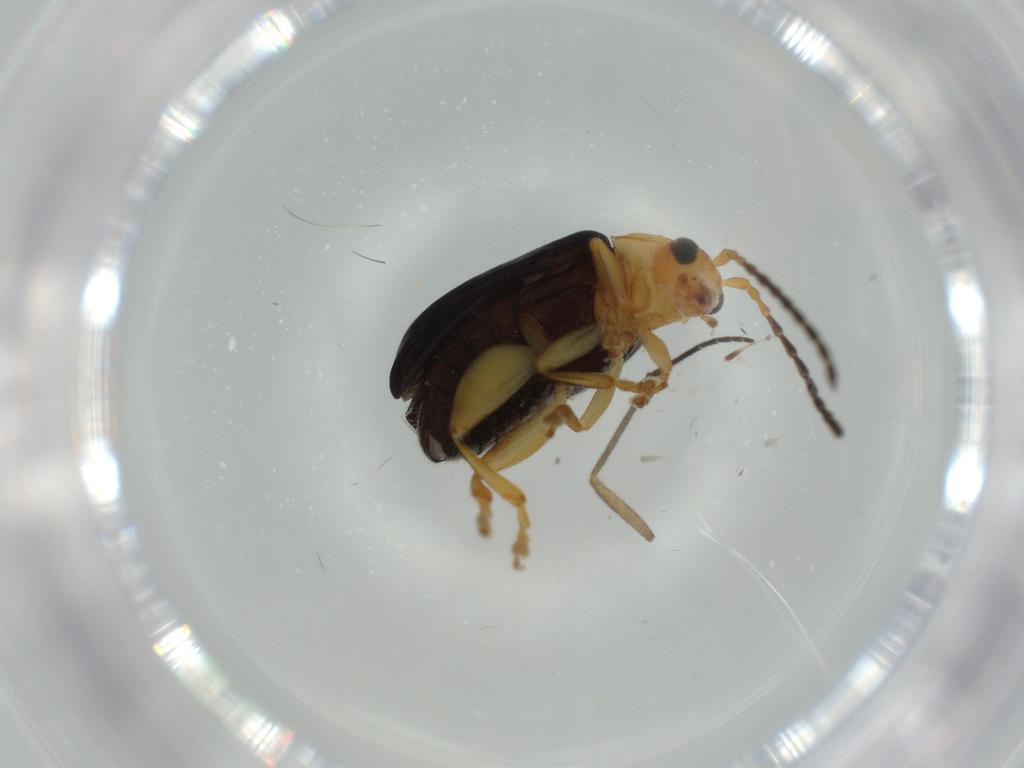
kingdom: Animalia
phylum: Arthropoda
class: Insecta
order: Coleoptera
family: Chrysomelidae
